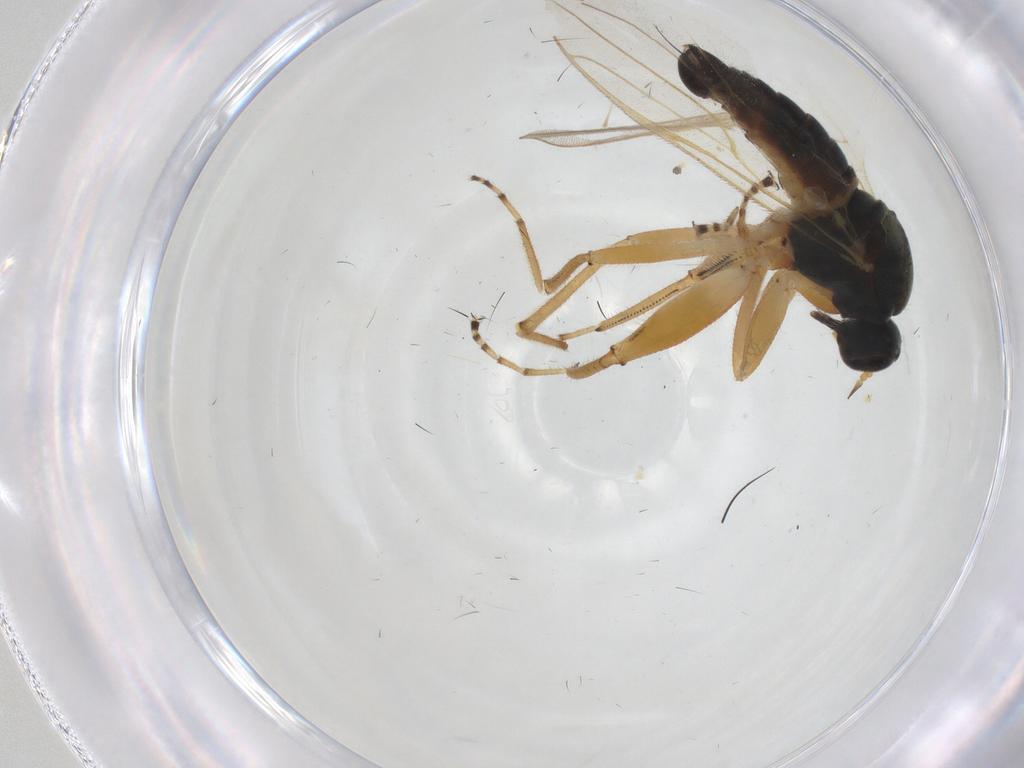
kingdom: Animalia
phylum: Arthropoda
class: Insecta
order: Diptera
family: Hybotidae
